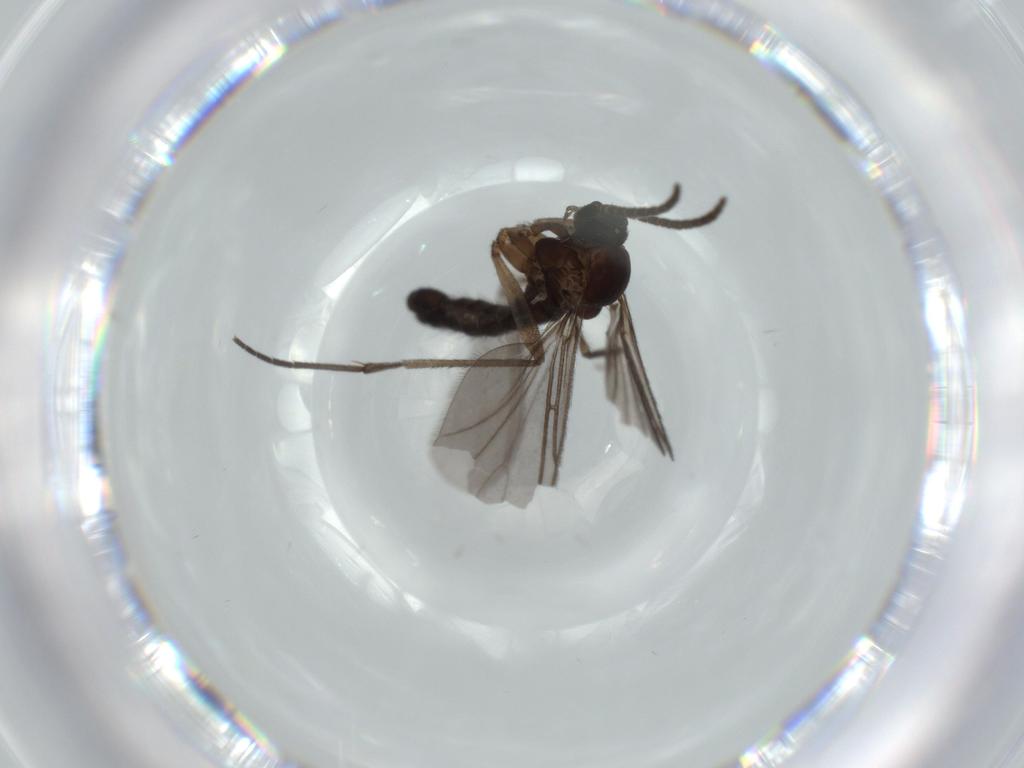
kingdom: Animalia
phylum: Arthropoda
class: Insecta
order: Diptera
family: Sciaridae
